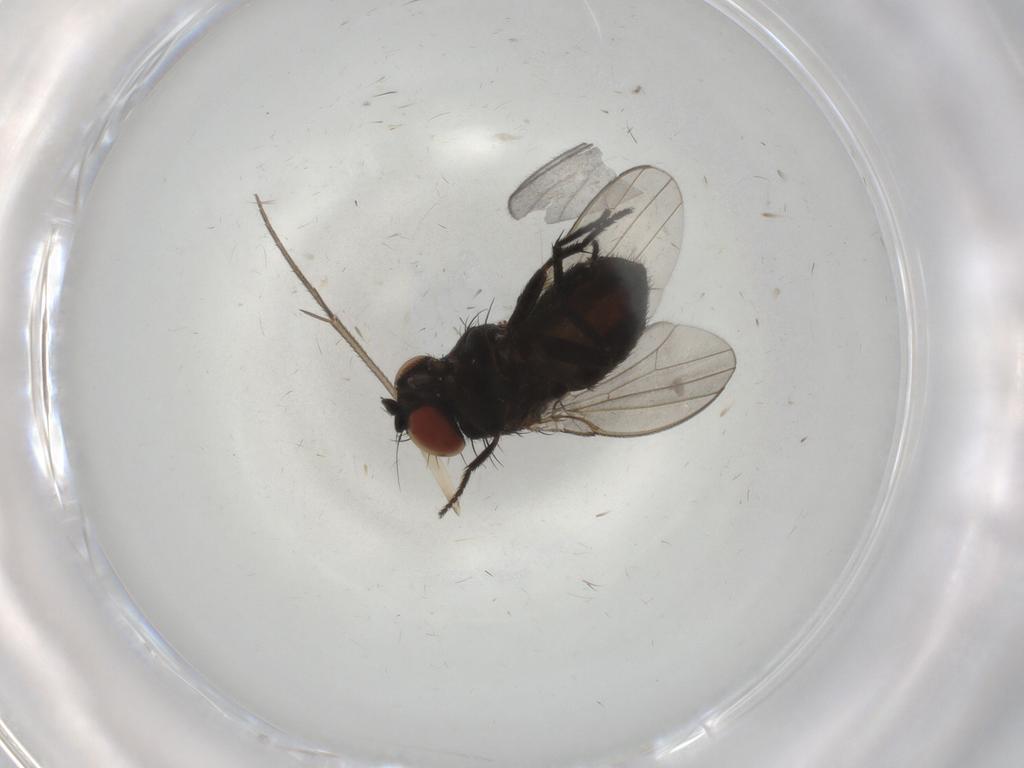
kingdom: Animalia
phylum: Arthropoda
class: Insecta
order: Diptera
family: Milichiidae
